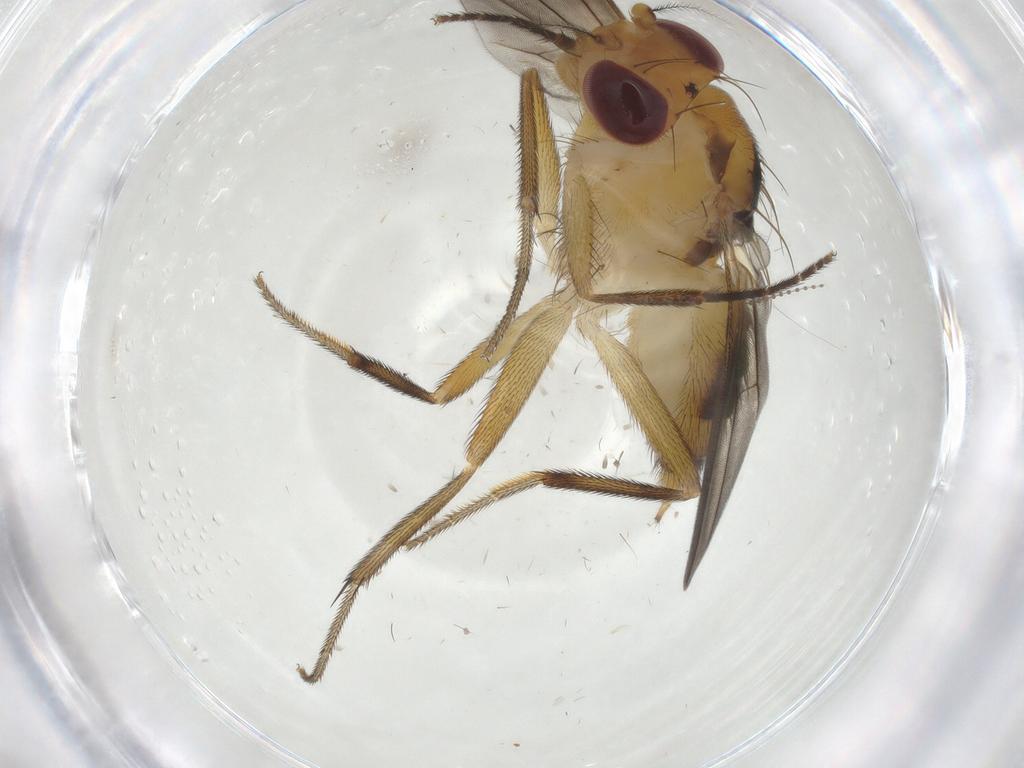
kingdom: Animalia
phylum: Arthropoda
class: Insecta
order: Diptera
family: Clusiidae
